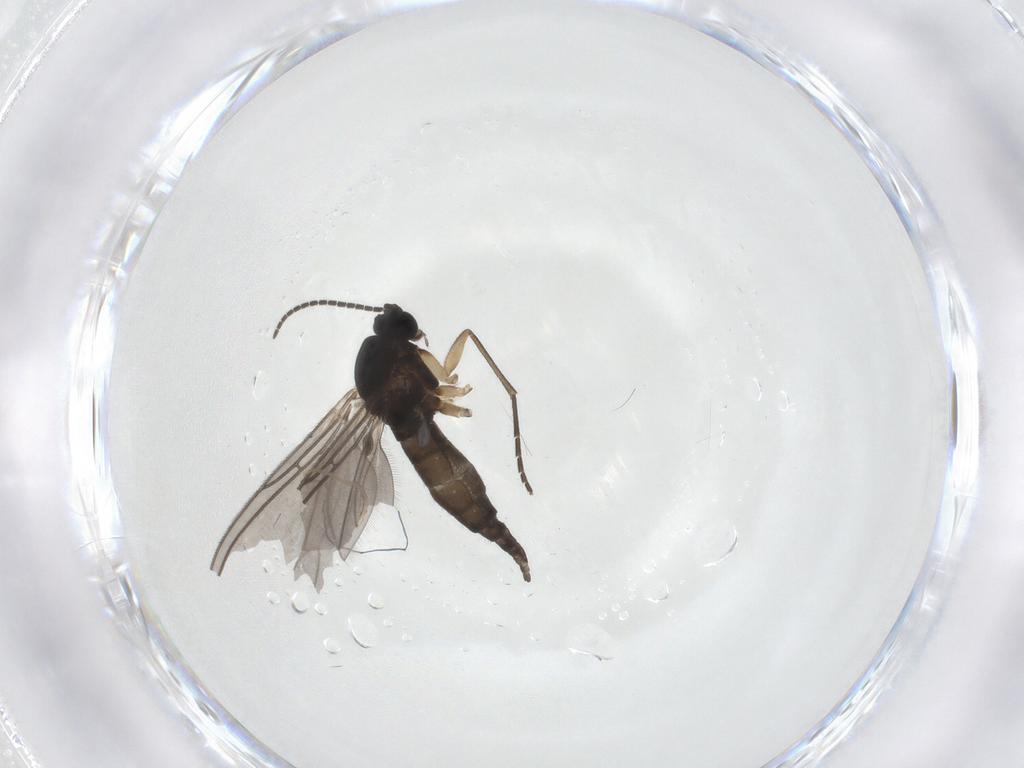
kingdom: Animalia
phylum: Arthropoda
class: Insecta
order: Diptera
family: Sciaridae
